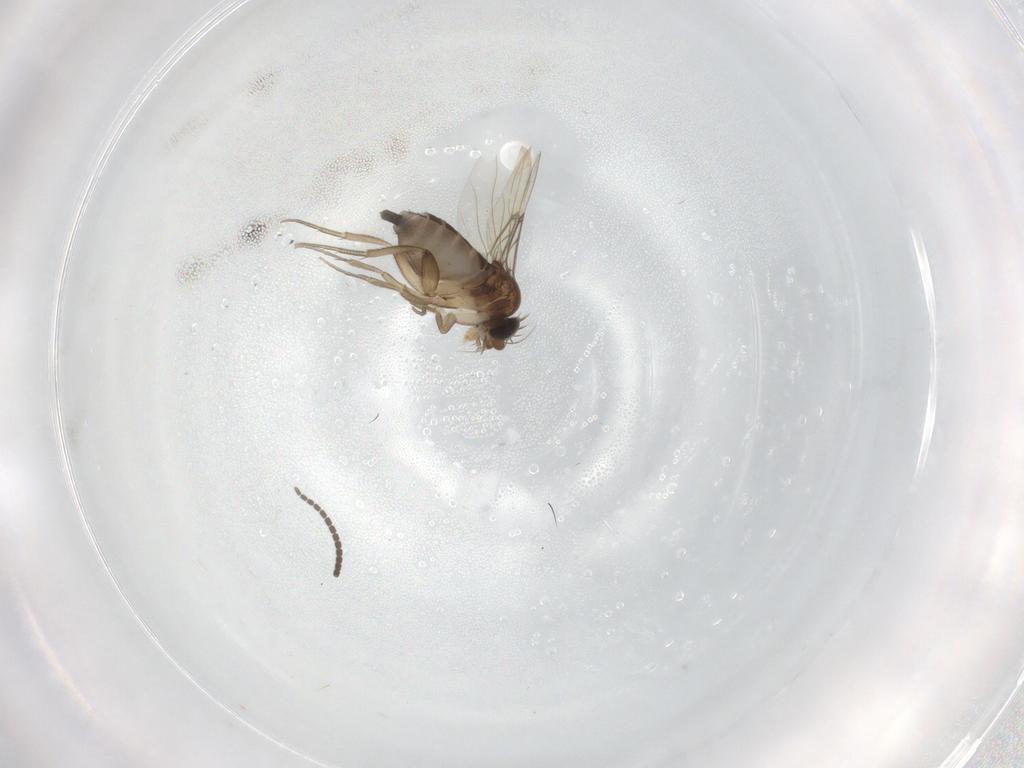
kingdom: Animalia
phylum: Arthropoda
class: Insecta
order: Diptera
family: Phoridae
